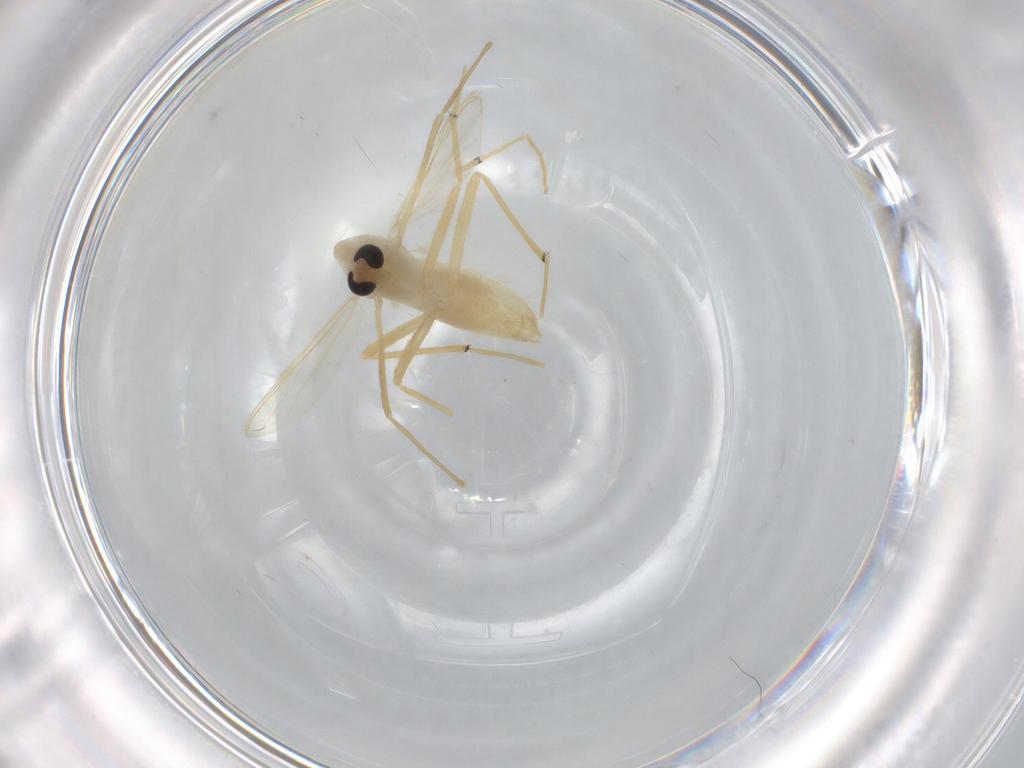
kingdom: Animalia
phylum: Arthropoda
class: Insecta
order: Diptera
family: Chironomidae
